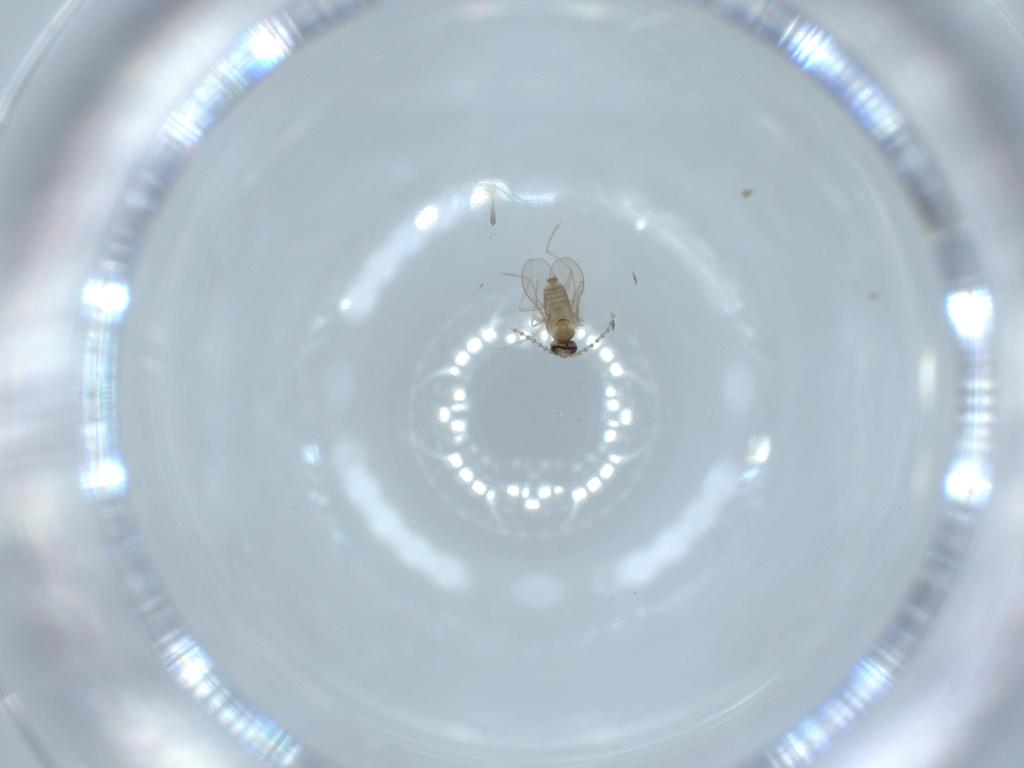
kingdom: Animalia
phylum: Arthropoda
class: Insecta
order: Diptera
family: Cecidomyiidae
